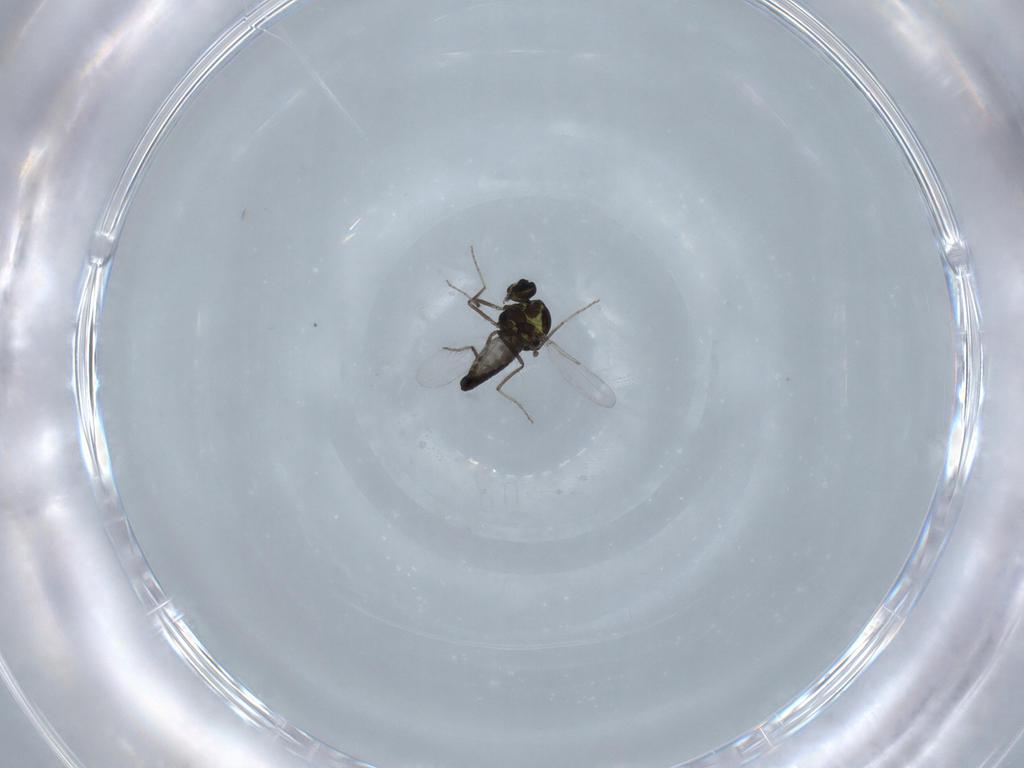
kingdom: Animalia
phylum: Arthropoda
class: Insecta
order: Diptera
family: Ceratopogonidae
